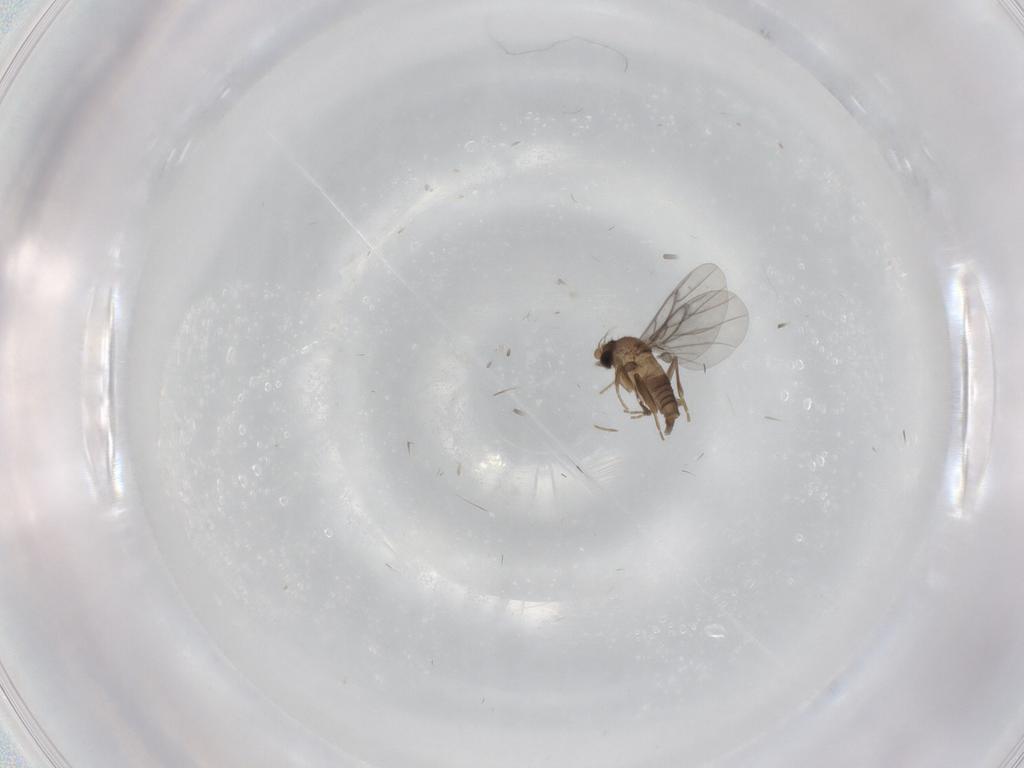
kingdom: Animalia
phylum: Arthropoda
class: Insecta
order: Diptera
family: Cecidomyiidae
